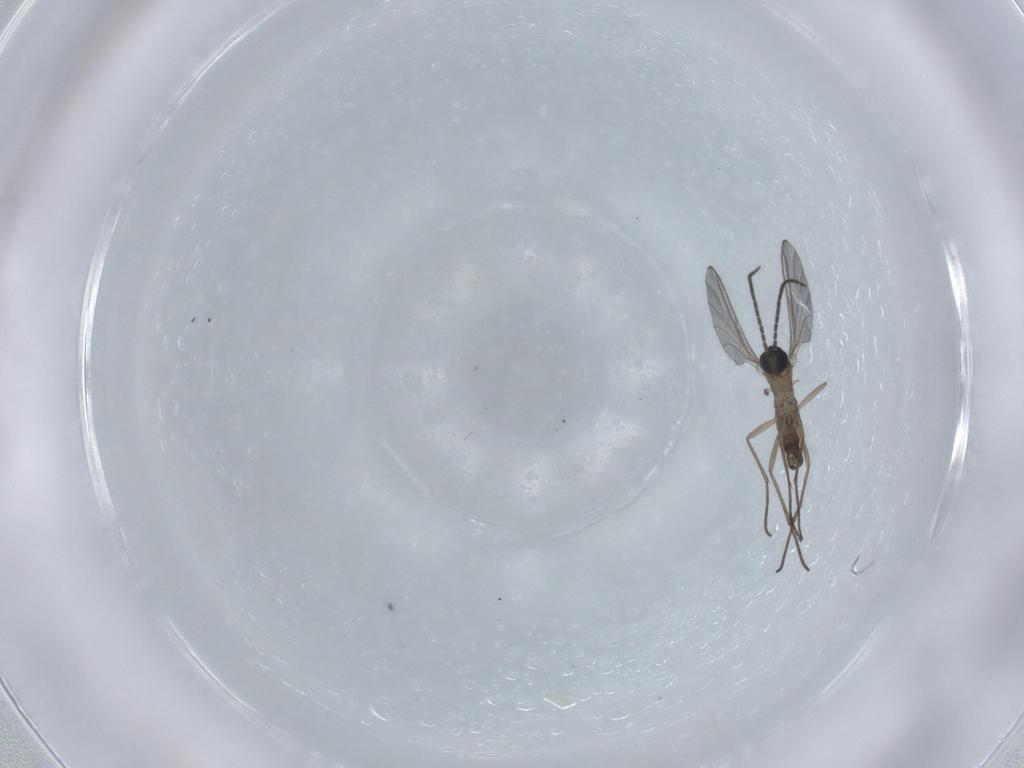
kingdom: Animalia
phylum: Arthropoda
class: Insecta
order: Diptera
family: Sciaridae
